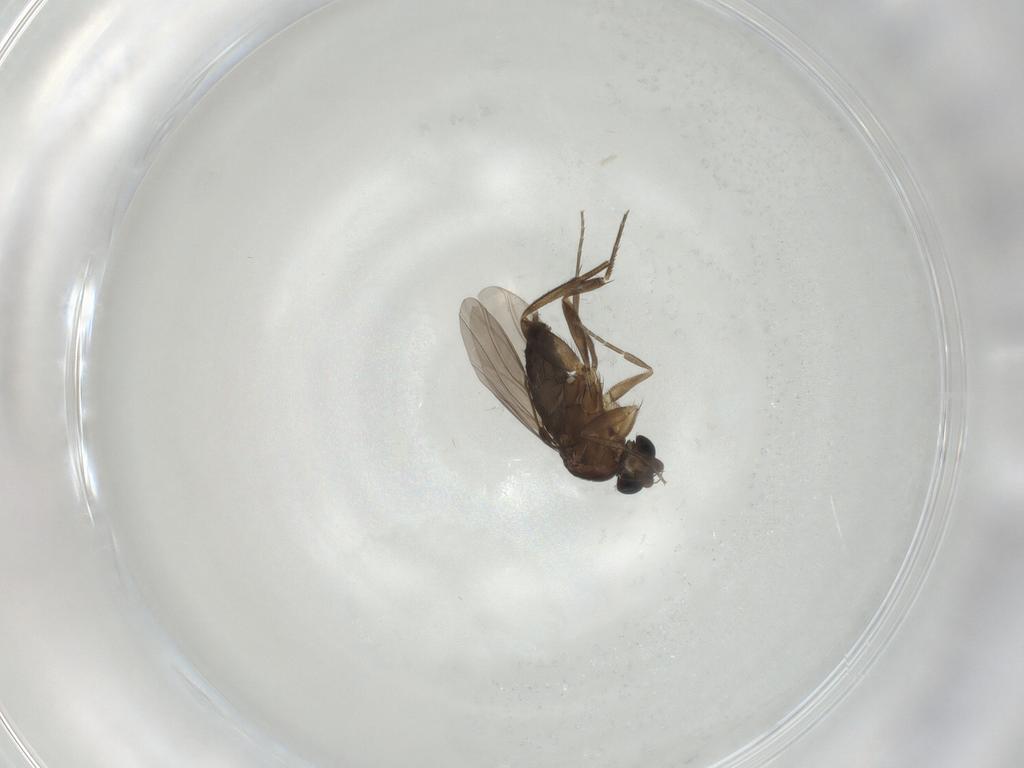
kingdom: Animalia
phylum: Arthropoda
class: Insecta
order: Diptera
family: Phoridae
